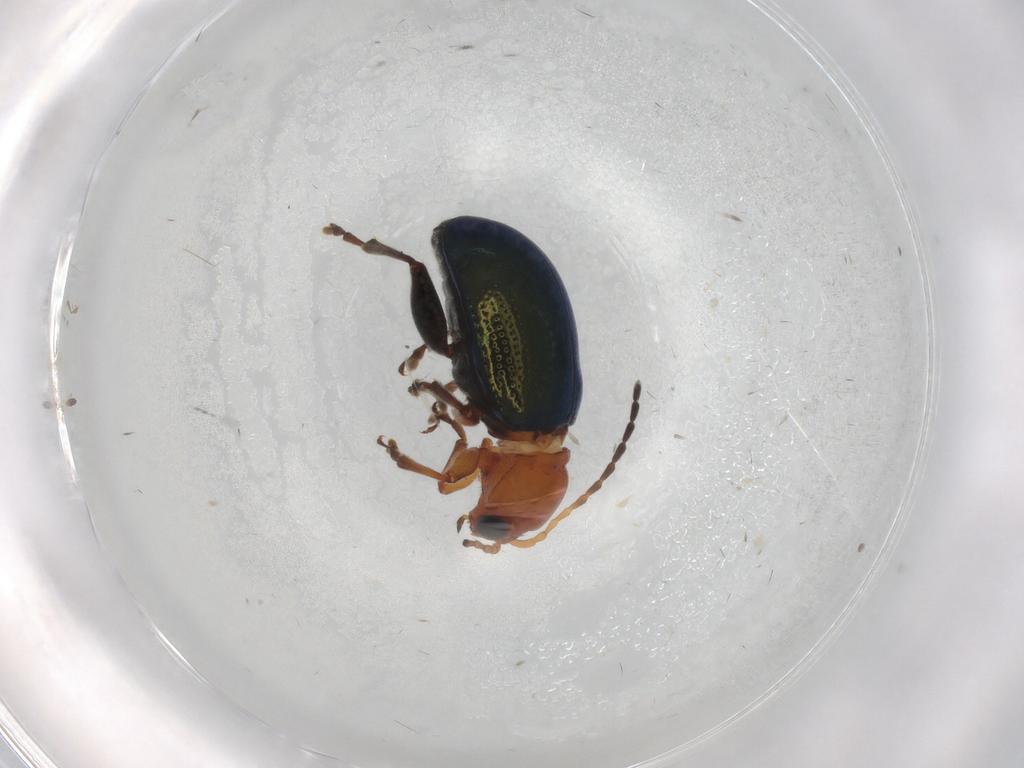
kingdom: Animalia
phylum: Arthropoda
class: Insecta
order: Coleoptera
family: Chrysomelidae
